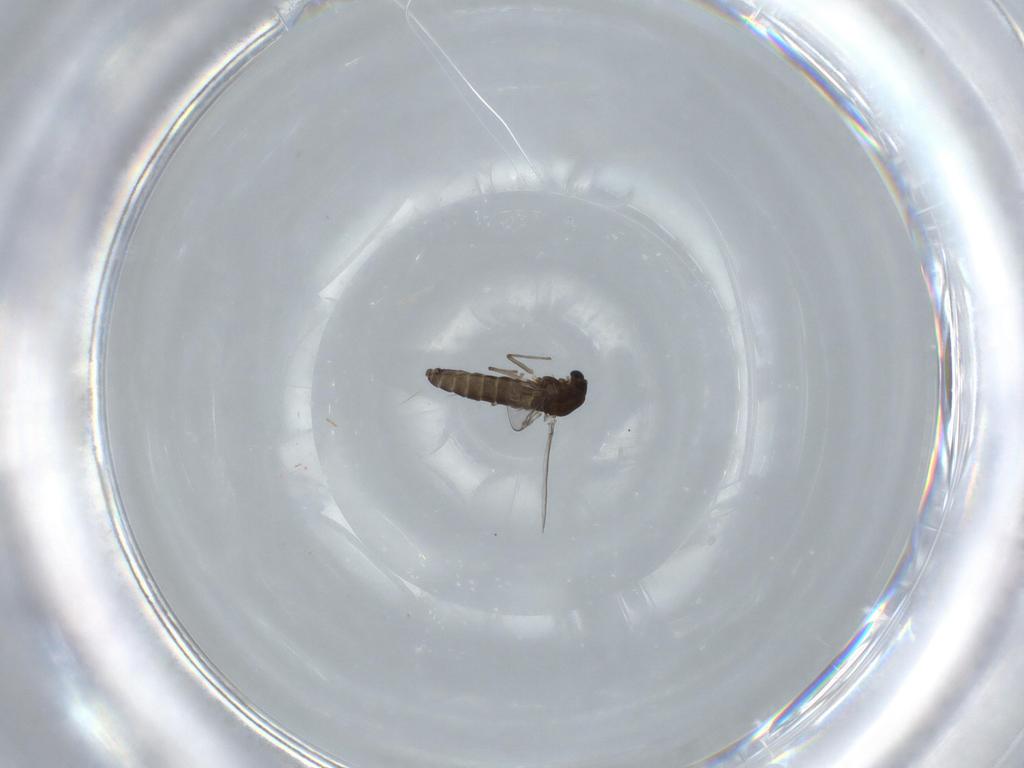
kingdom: Animalia
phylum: Arthropoda
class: Insecta
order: Diptera
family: Chironomidae
